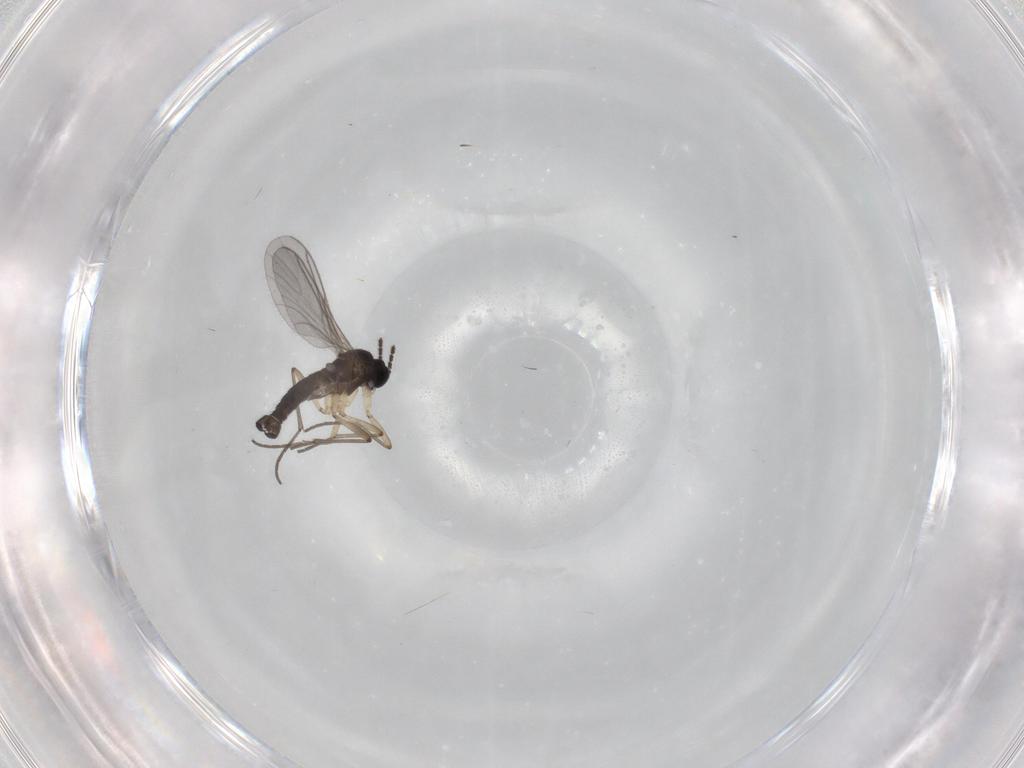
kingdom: Animalia
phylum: Arthropoda
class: Insecta
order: Diptera
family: Sciaridae
